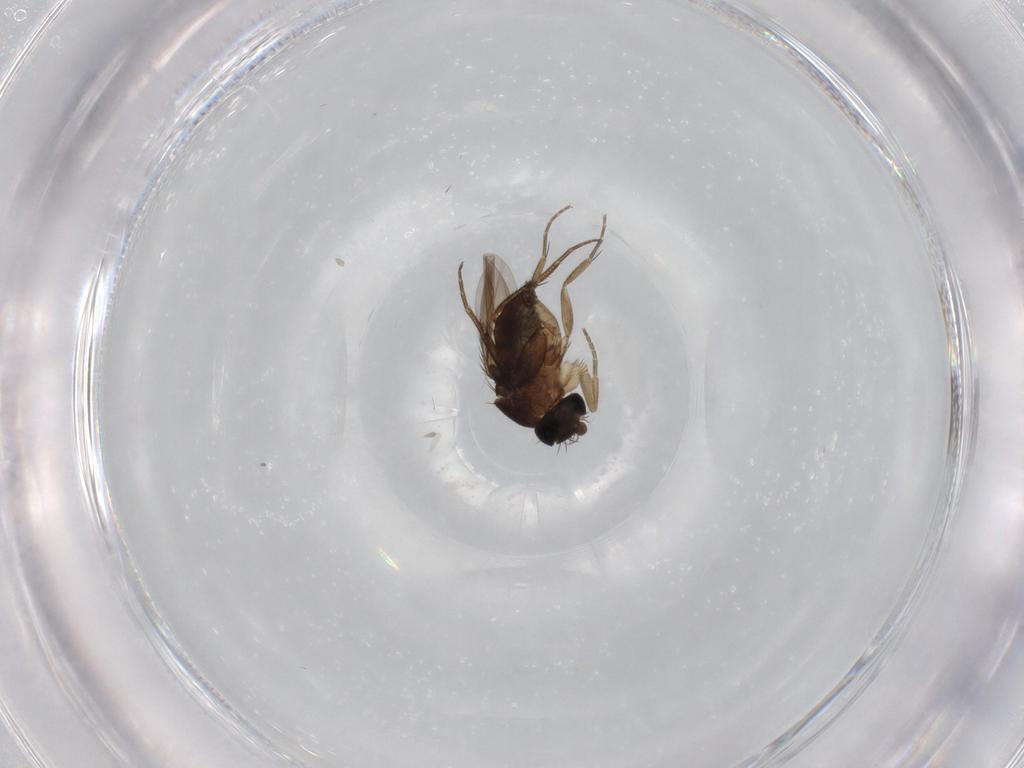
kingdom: Animalia
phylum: Arthropoda
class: Insecta
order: Diptera
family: Phoridae
